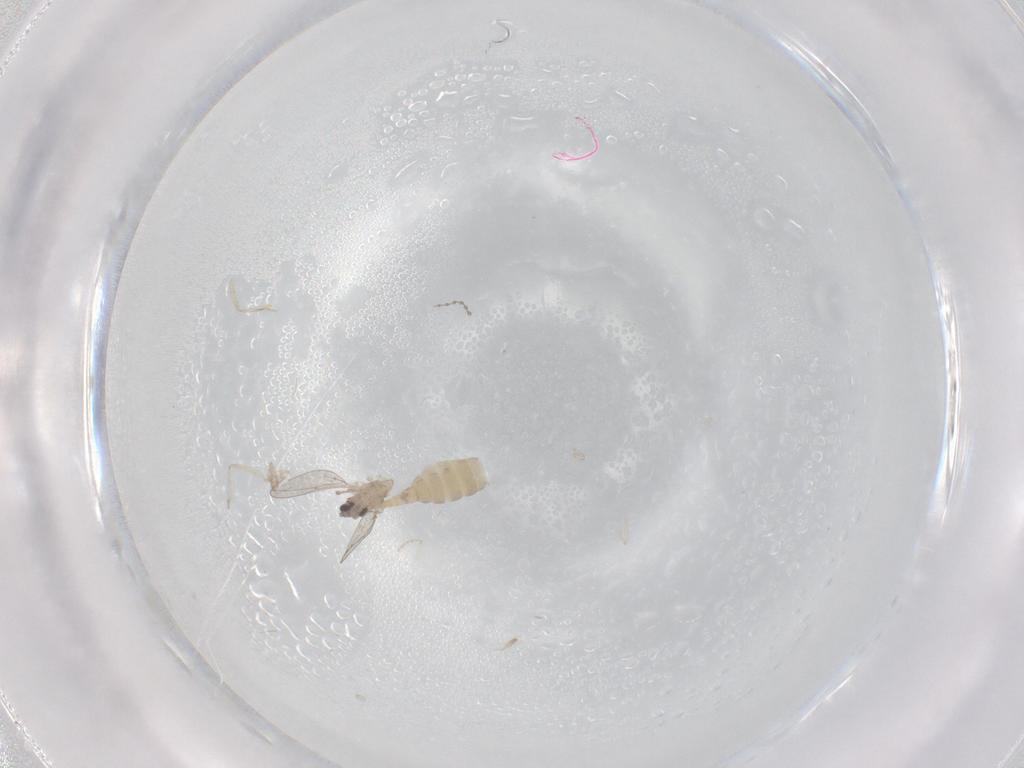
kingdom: Animalia
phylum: Arthropoda
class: Insecta
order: Diptera
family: Cecidomyiidae
